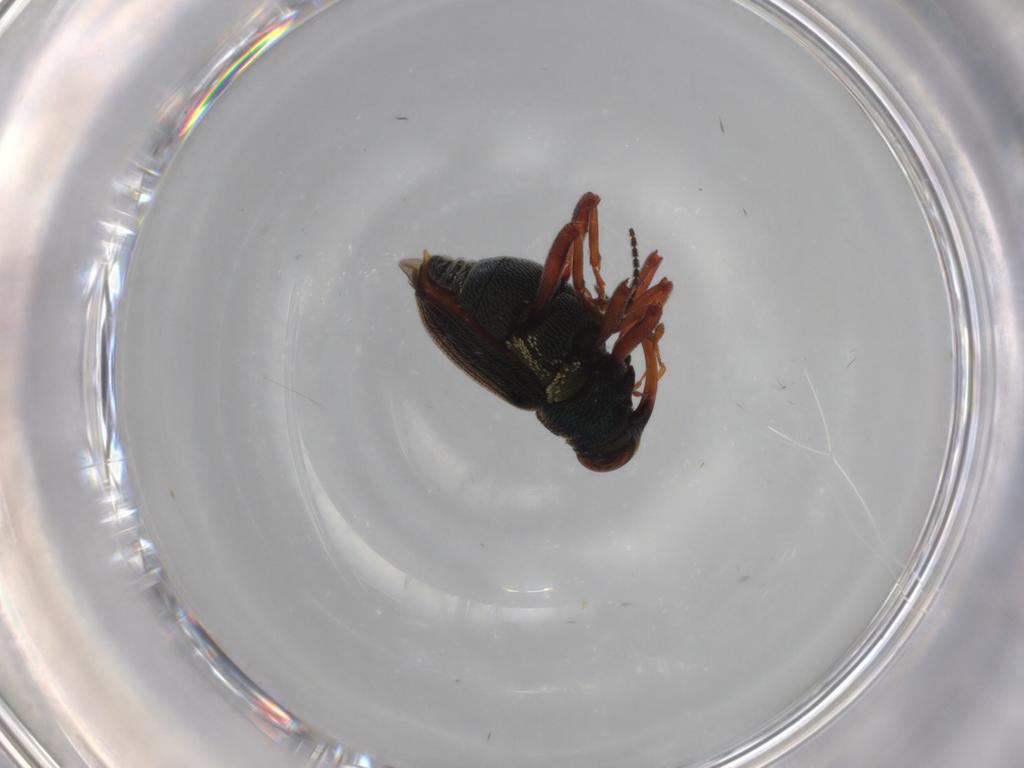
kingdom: Animalia
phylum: Arthropoda
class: Insecta
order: Coleoptera
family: Curculionidae
